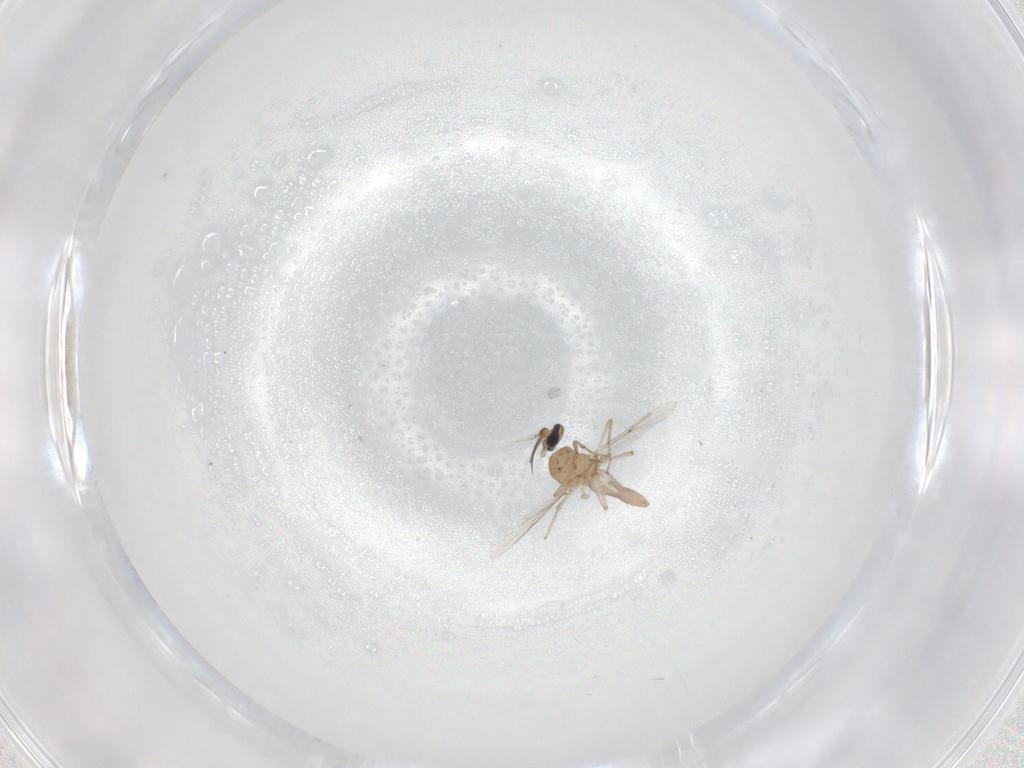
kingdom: Animalia
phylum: Arthropoda
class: Insecta
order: Diptera
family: Ceratopogonidae
